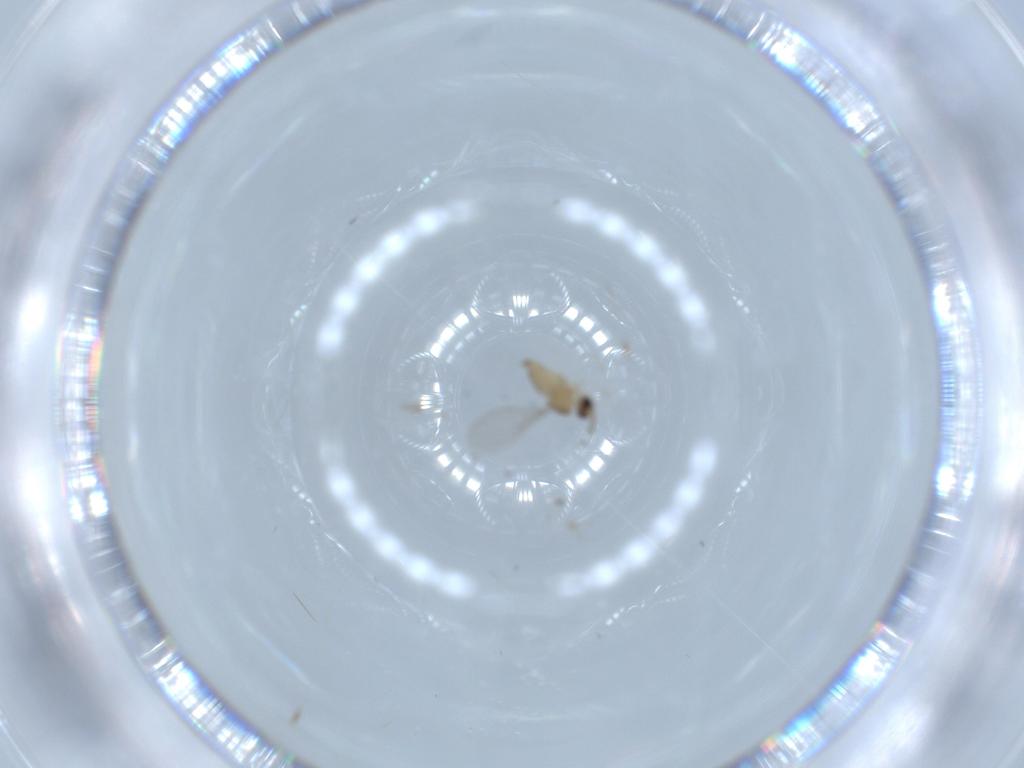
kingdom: Animalia
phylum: Arthropoda
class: Insecta
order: Diptera
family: Cecidomyiidae
